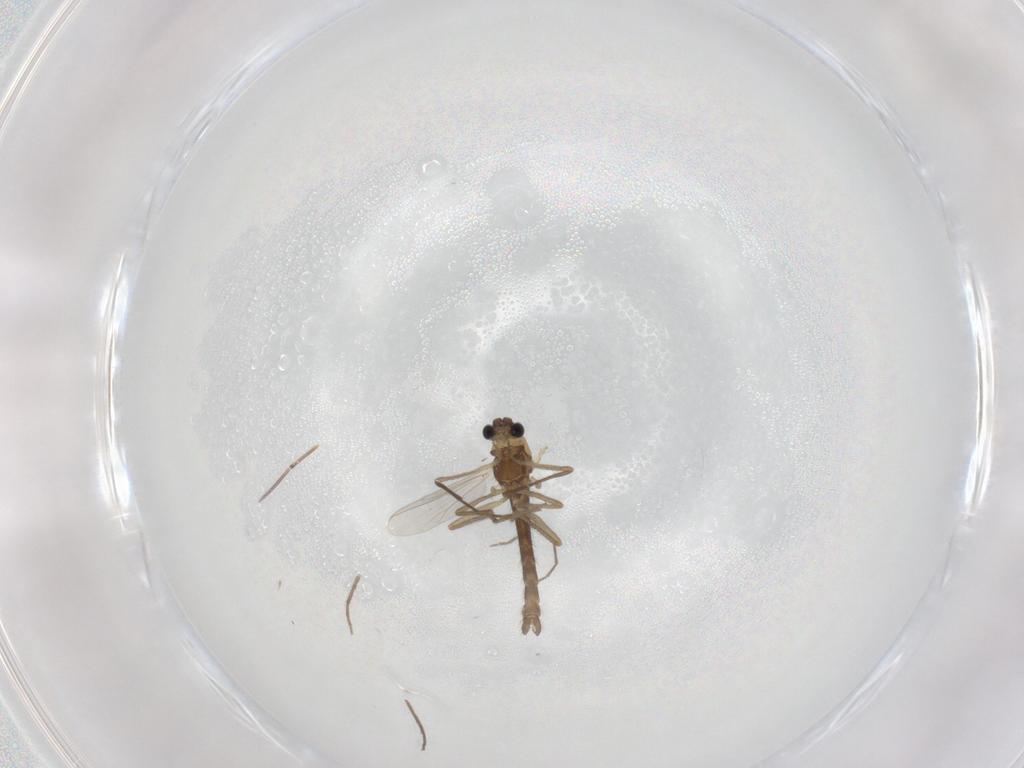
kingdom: Animalia
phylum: Arthropoda
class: Insecta
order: Diptera
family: Chironomidae
